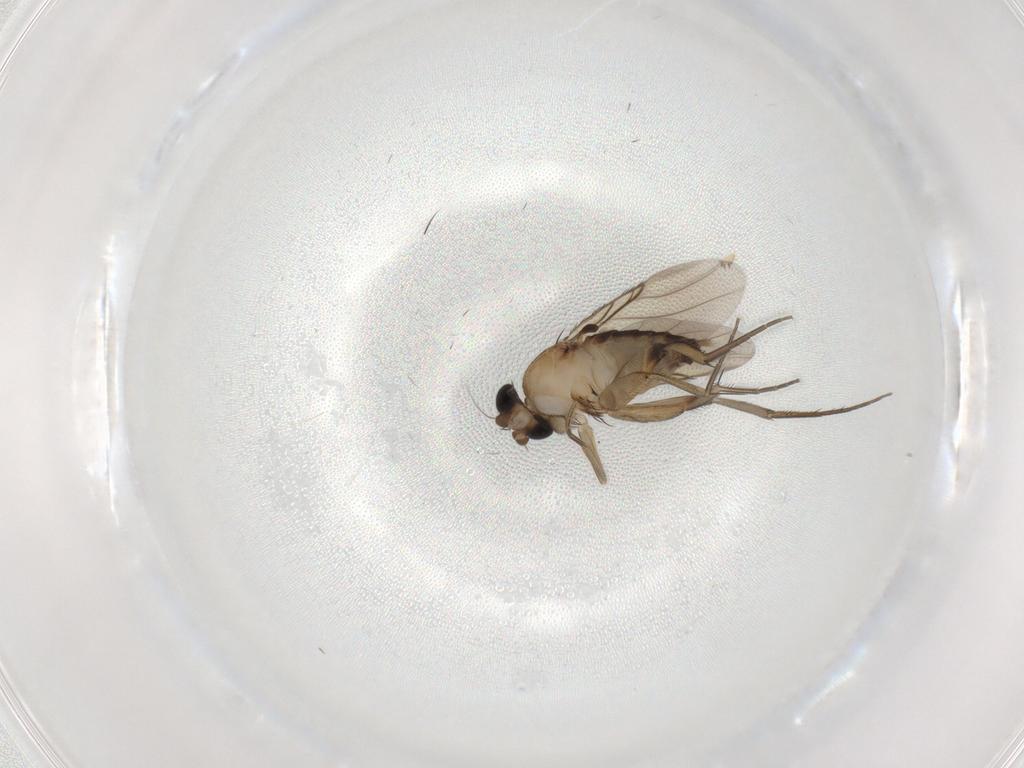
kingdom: Animalia
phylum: Arthropoda
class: Insecta
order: Diptera
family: Phoridae
